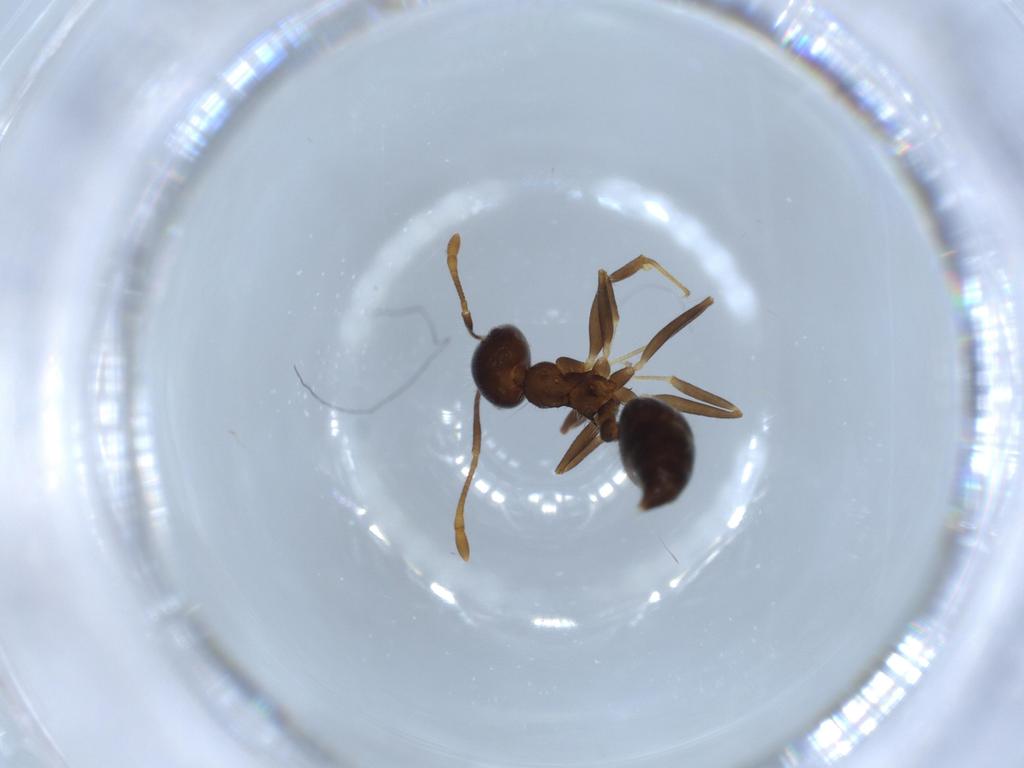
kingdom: Animalia
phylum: Arthropoda
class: Insecta
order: Hymenoptera
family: Formicidae
